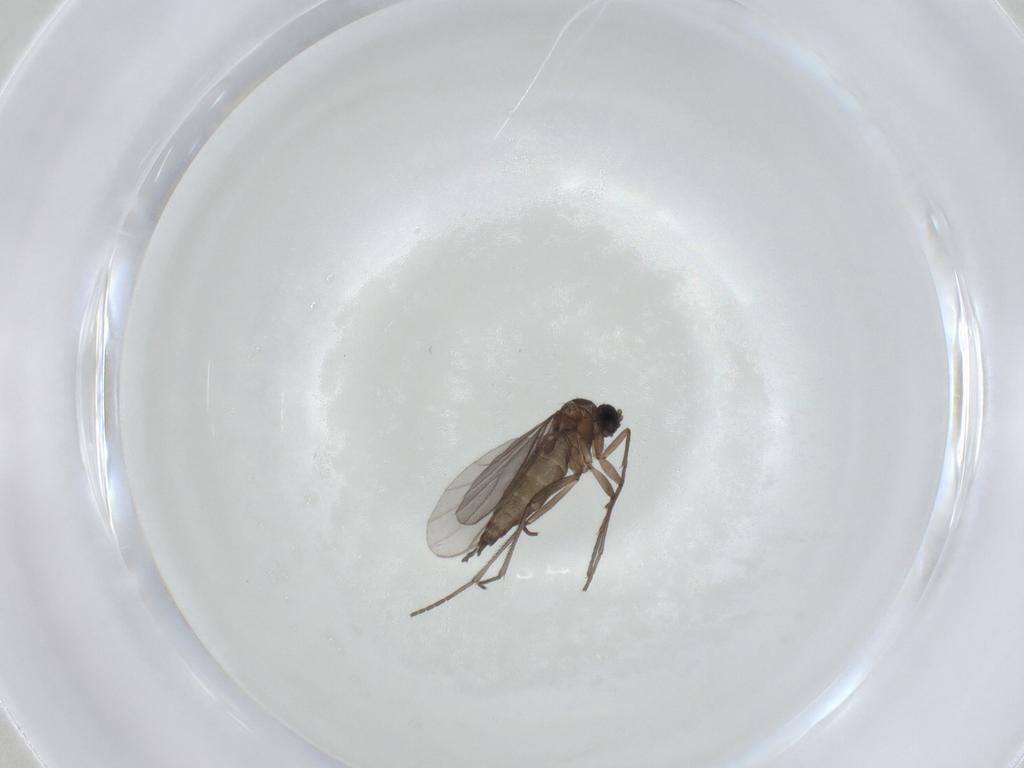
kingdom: Animalia
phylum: Arthropoda
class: Insecta
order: Diptera
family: Sciaridae
